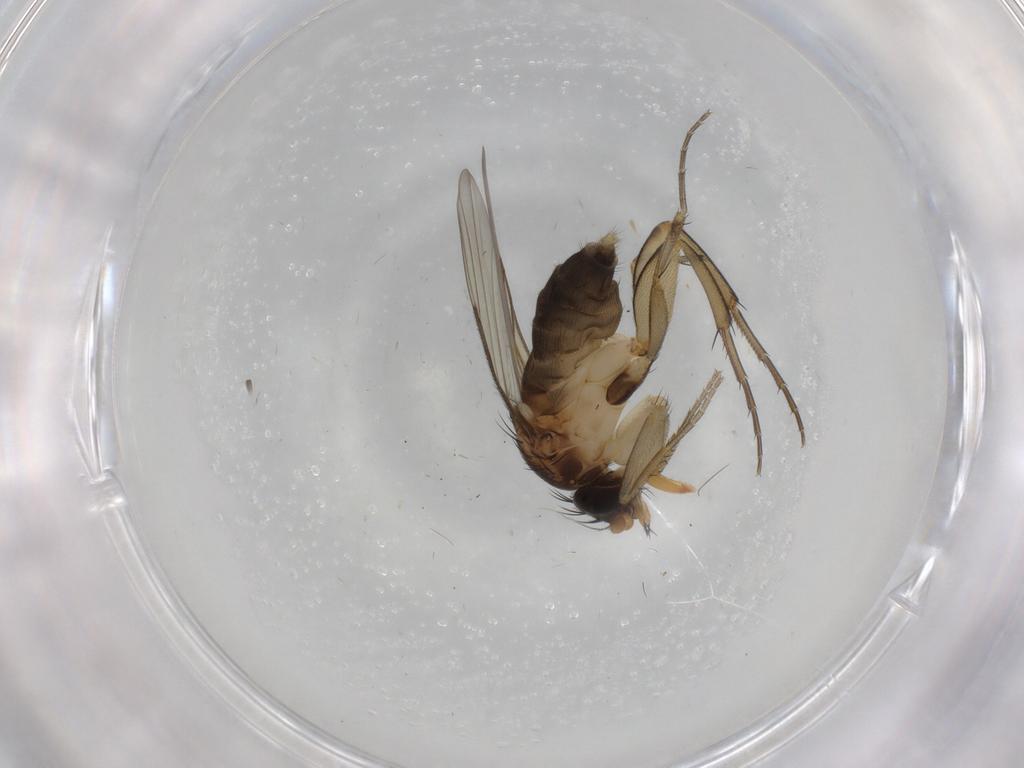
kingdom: Animalia
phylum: Arthropoda
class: Insecta
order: Diptera
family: Phoridae
